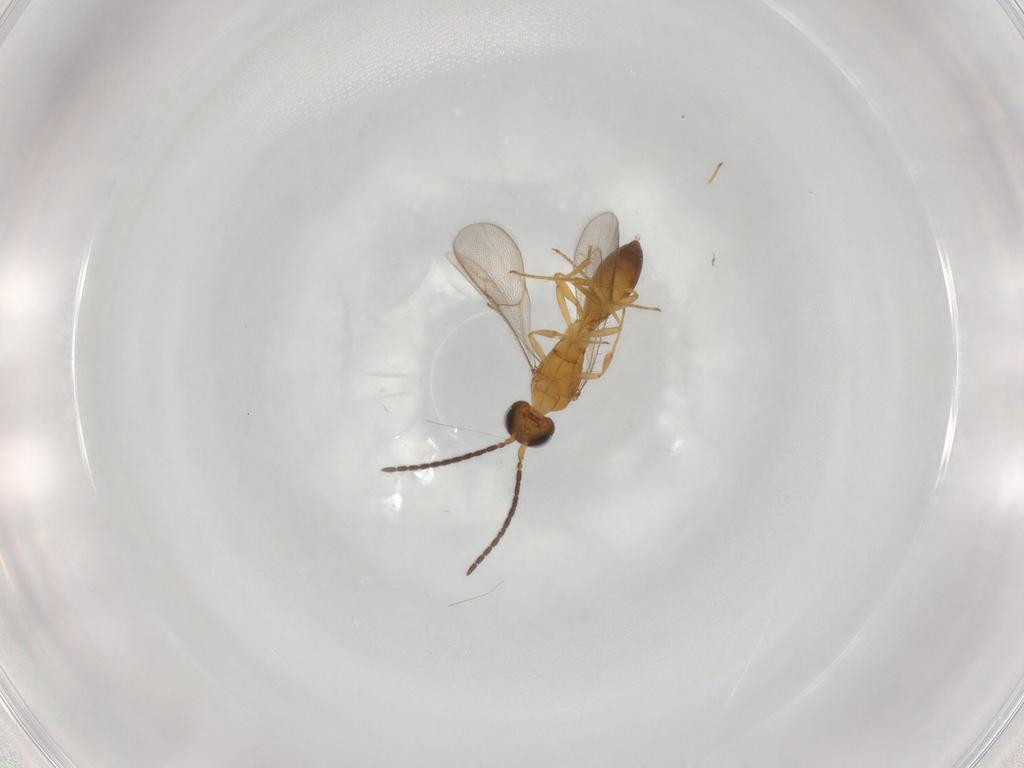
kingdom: Animalia
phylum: Arthropoda
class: Insecta
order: Hymenoptera
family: Scelionidae
